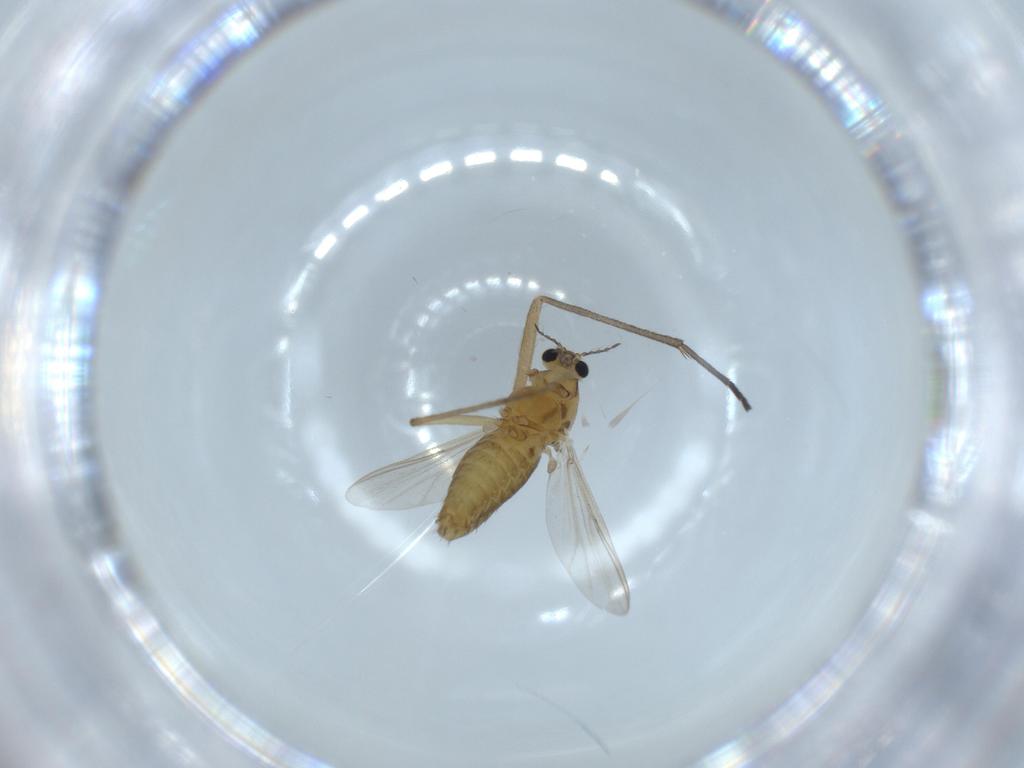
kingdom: Animalia
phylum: Arthropoda
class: Insecta
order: Diptera
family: Chironomidae
